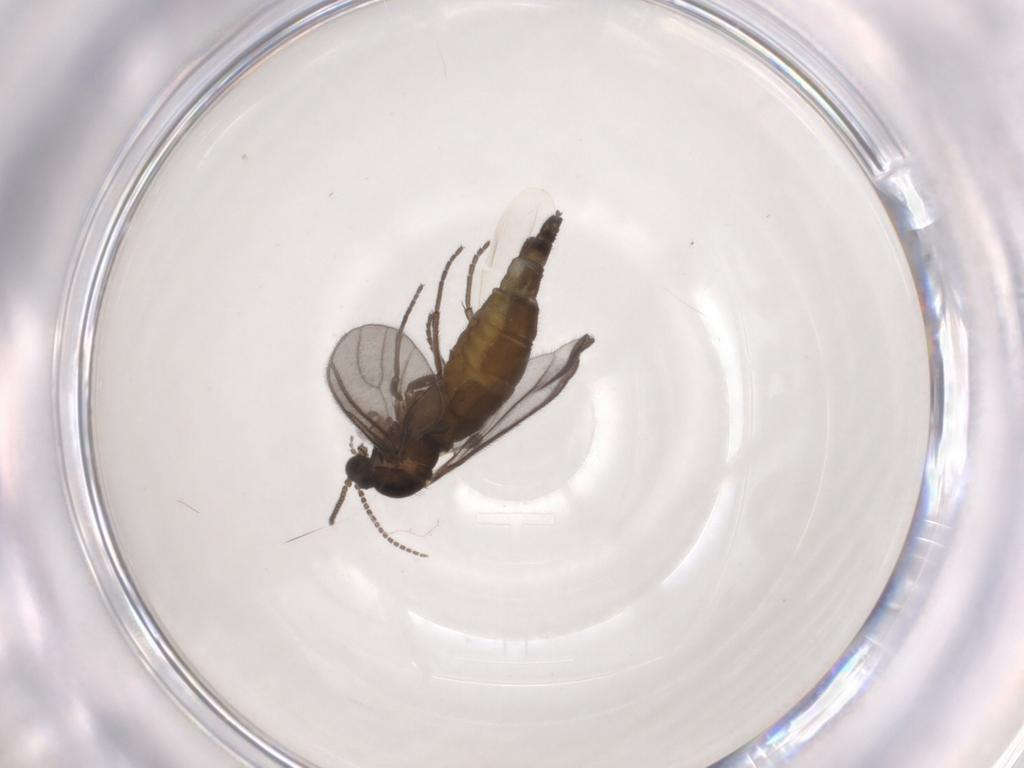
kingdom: Animalia
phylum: Arthropoda
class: Insecta
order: Diptera
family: Sciaridae
